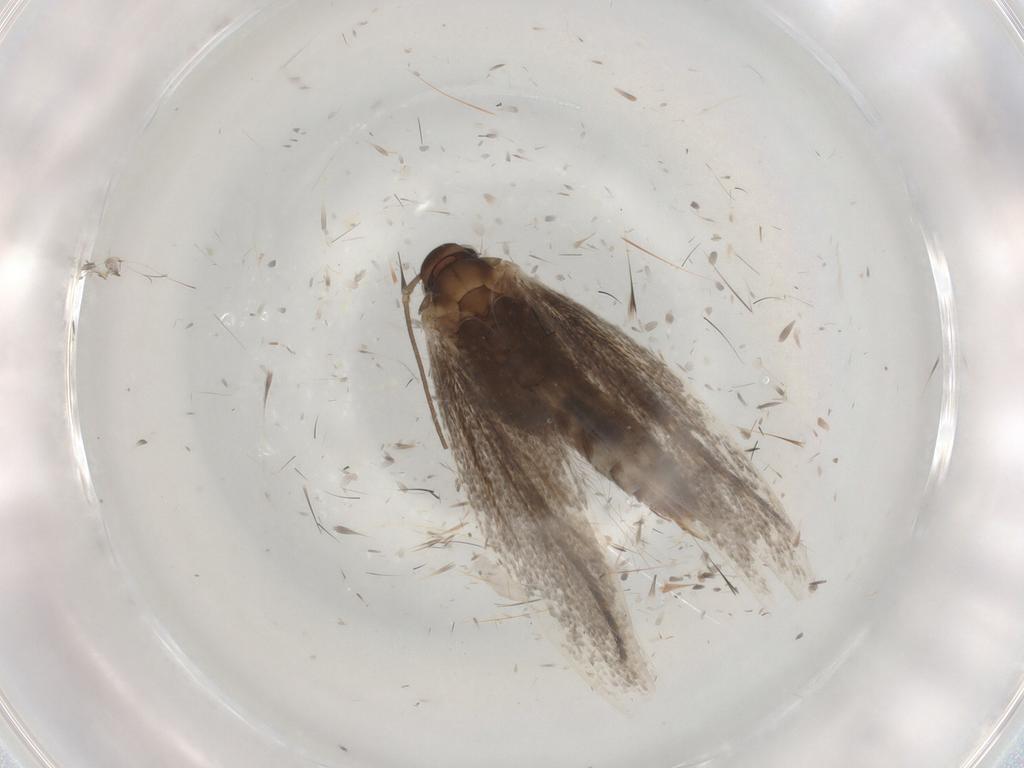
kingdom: Animalia
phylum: Arthropoda
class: Insecta
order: Lepidoptera
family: Elachistidae
